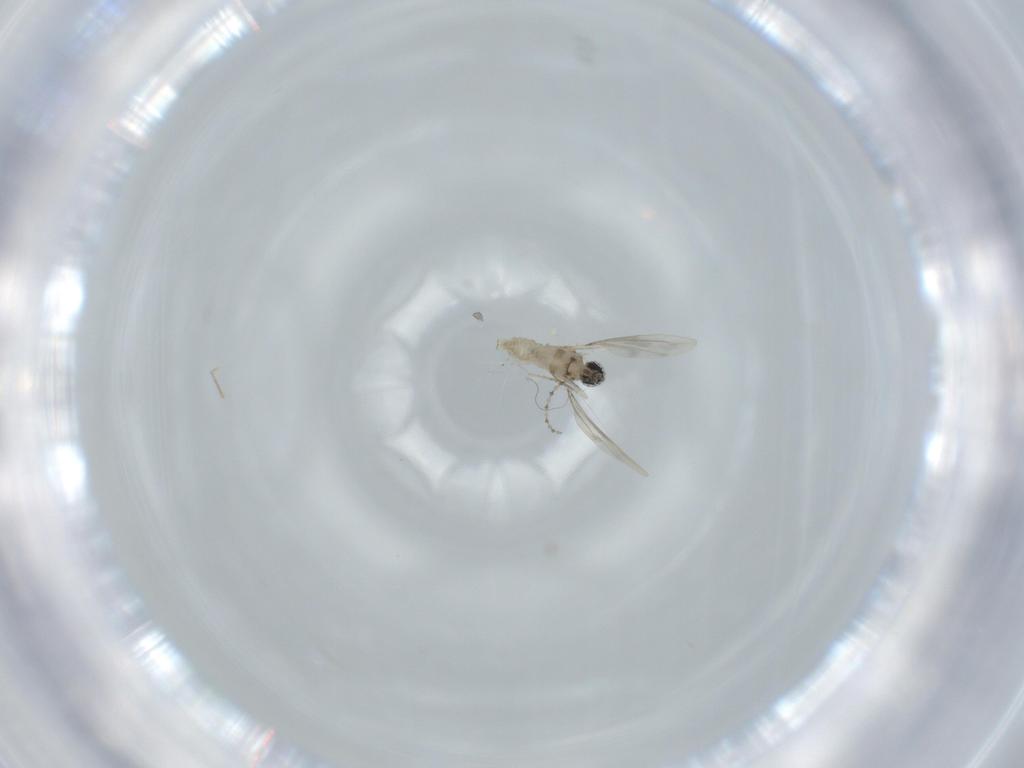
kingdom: Animalia
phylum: Arthropoda
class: Insecta
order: Diptera
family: Cecidomyiidae
